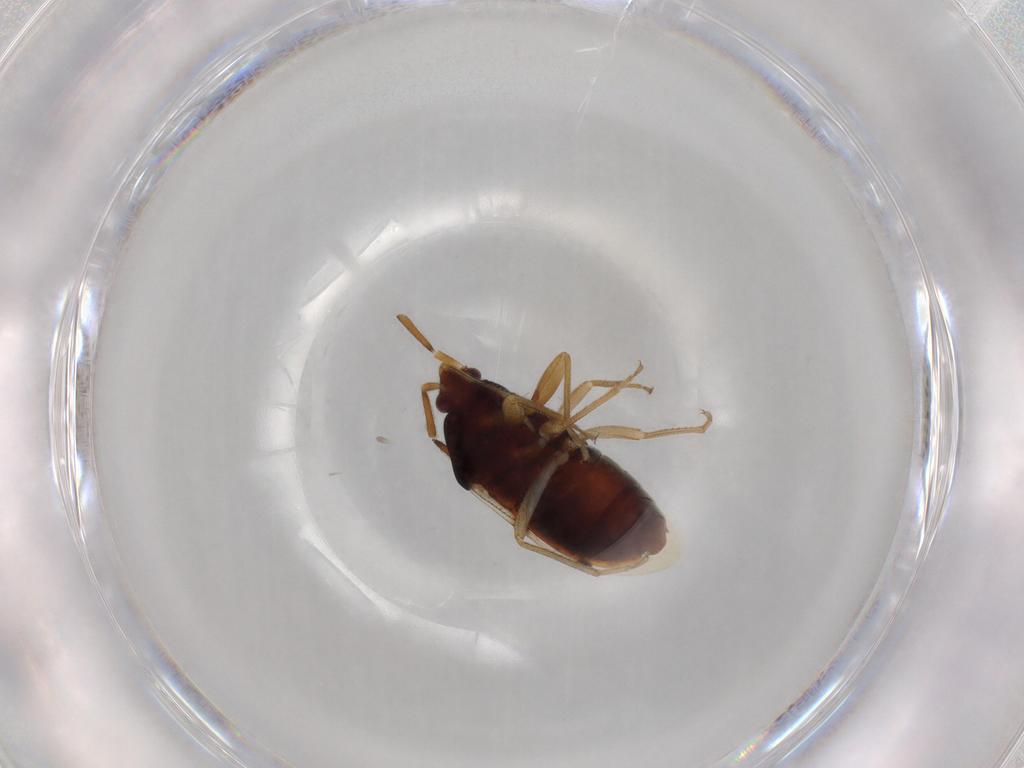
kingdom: Animalia
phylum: Arthropoda
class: Insecta
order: Hemiptera
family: Rhyparochromidae
